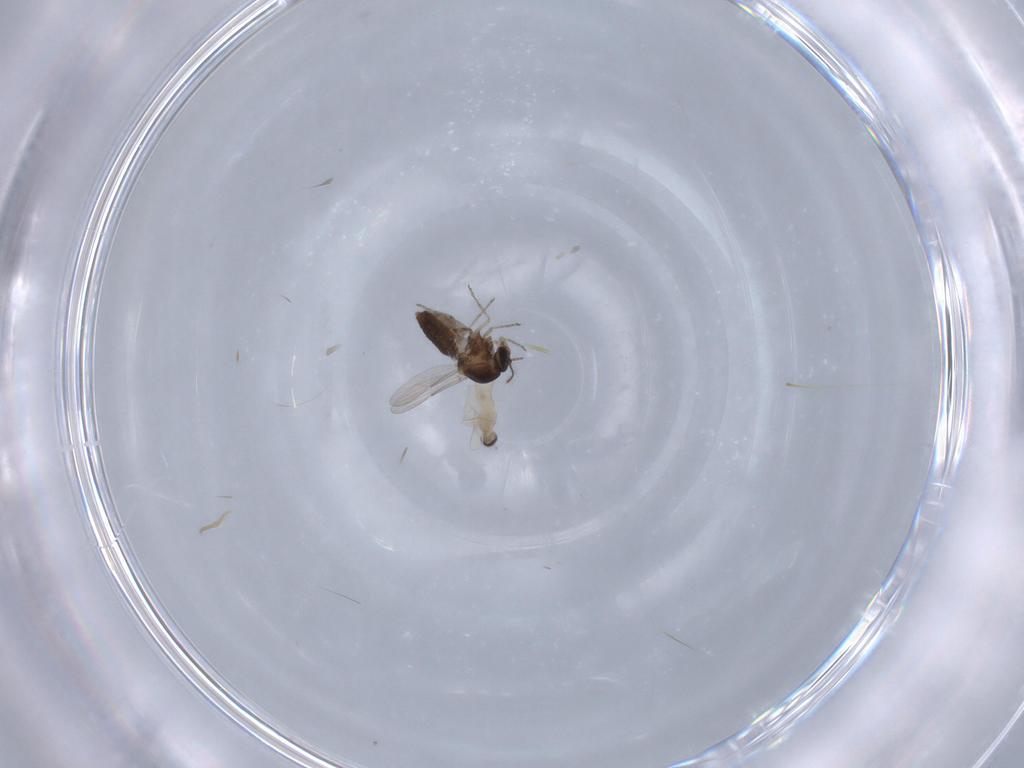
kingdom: Animalia
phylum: Arthropoda
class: Insecta
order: Diptera
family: Ceratopogonidae
